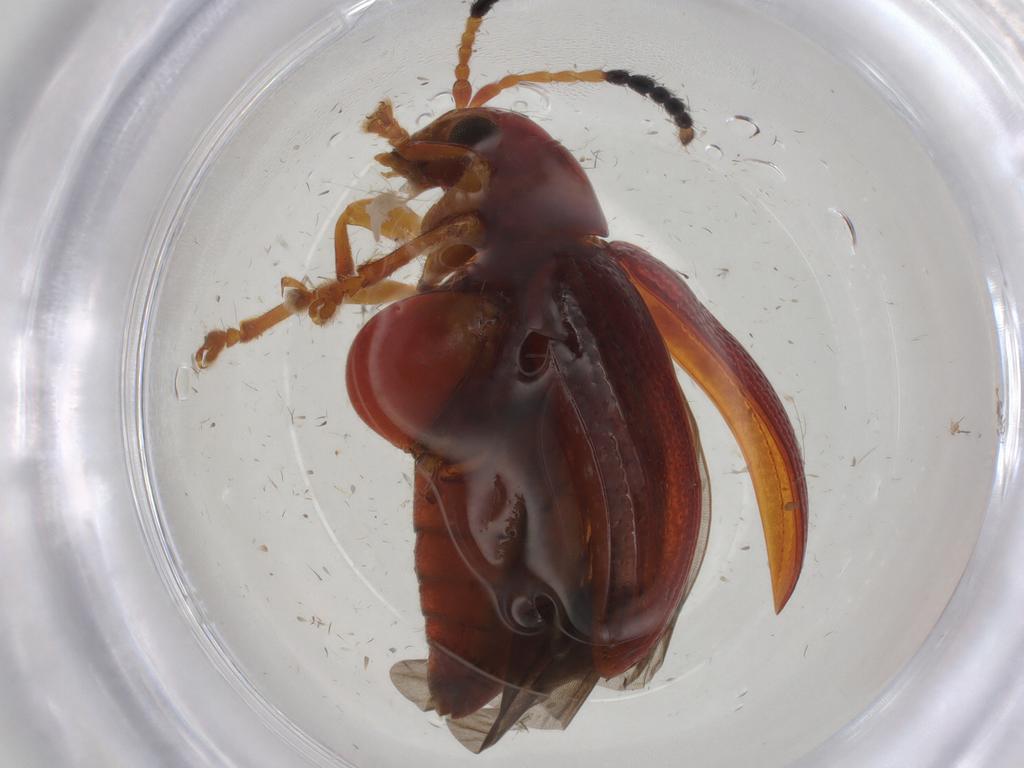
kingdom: Animalia
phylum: Arthropoda
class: Insecta
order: Coleoptera
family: Chrysomelidae
